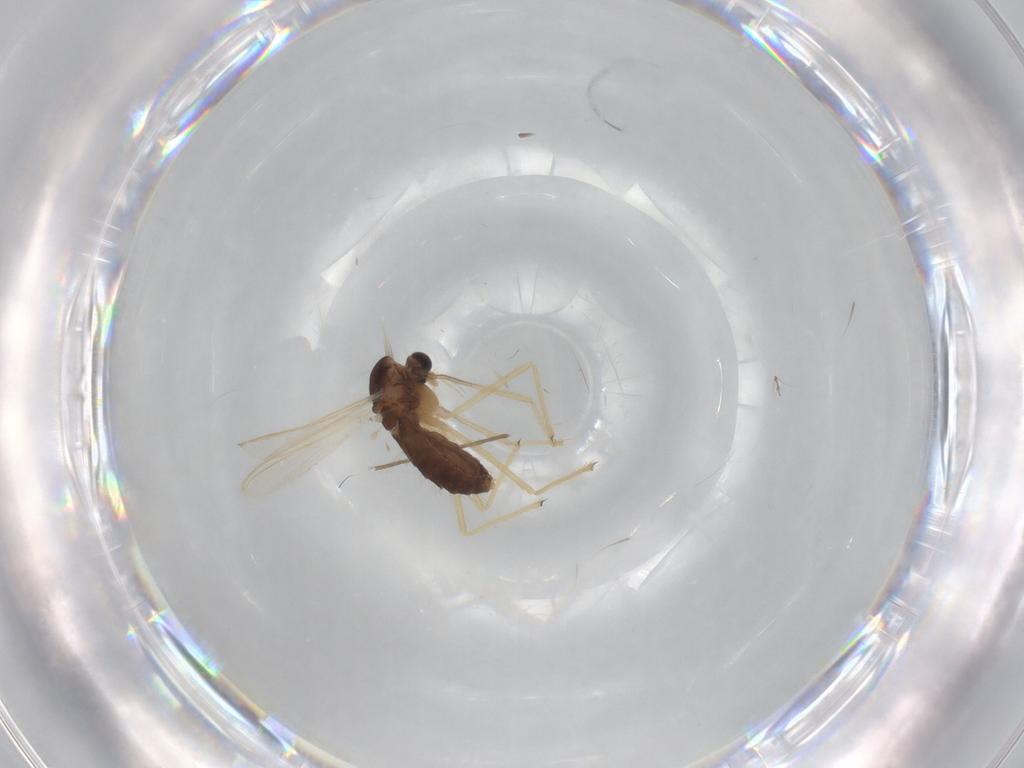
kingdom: Animalia
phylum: Arthropoda
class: Insecta
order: Diptera
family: Chironomidae
